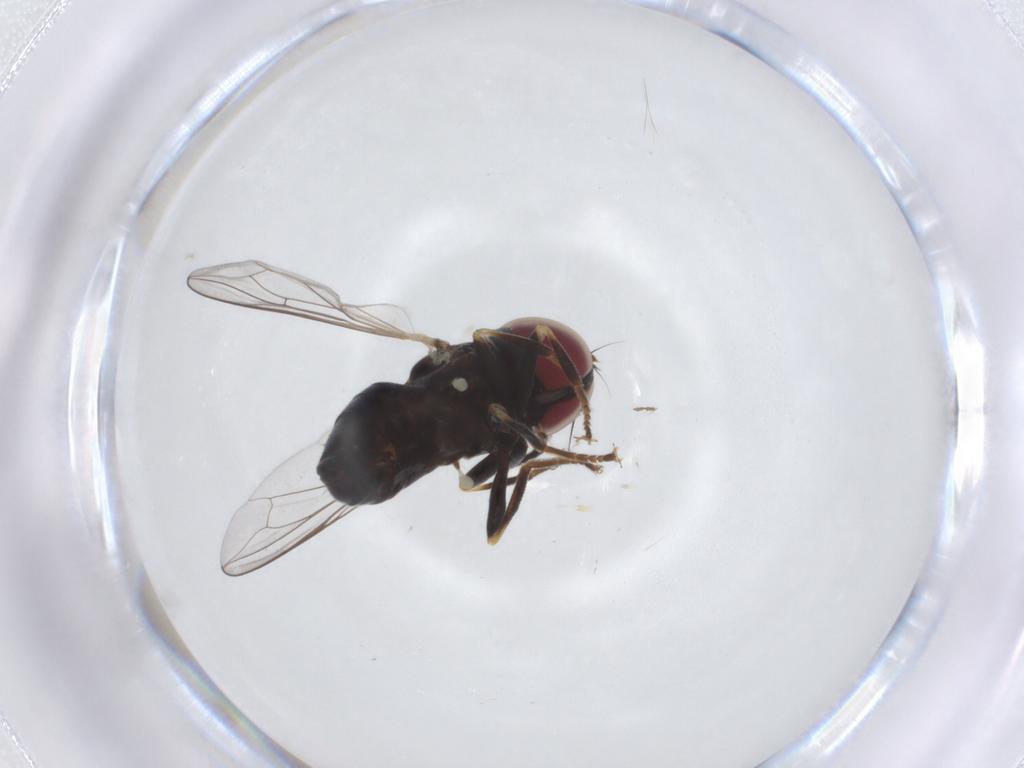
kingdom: Animalia
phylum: Arthropoda
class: Insecta
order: Diptera
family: Pipunculidae
